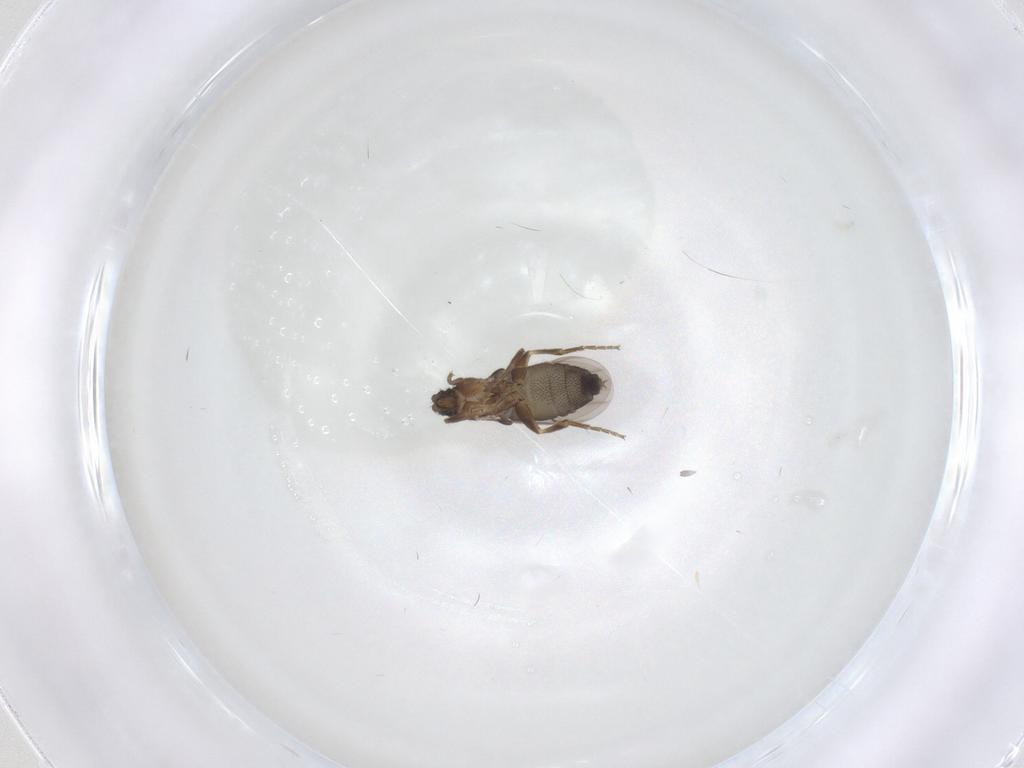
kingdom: Animalia
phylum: Arthropoda
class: Insecta
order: Diptera
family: Phoridae
